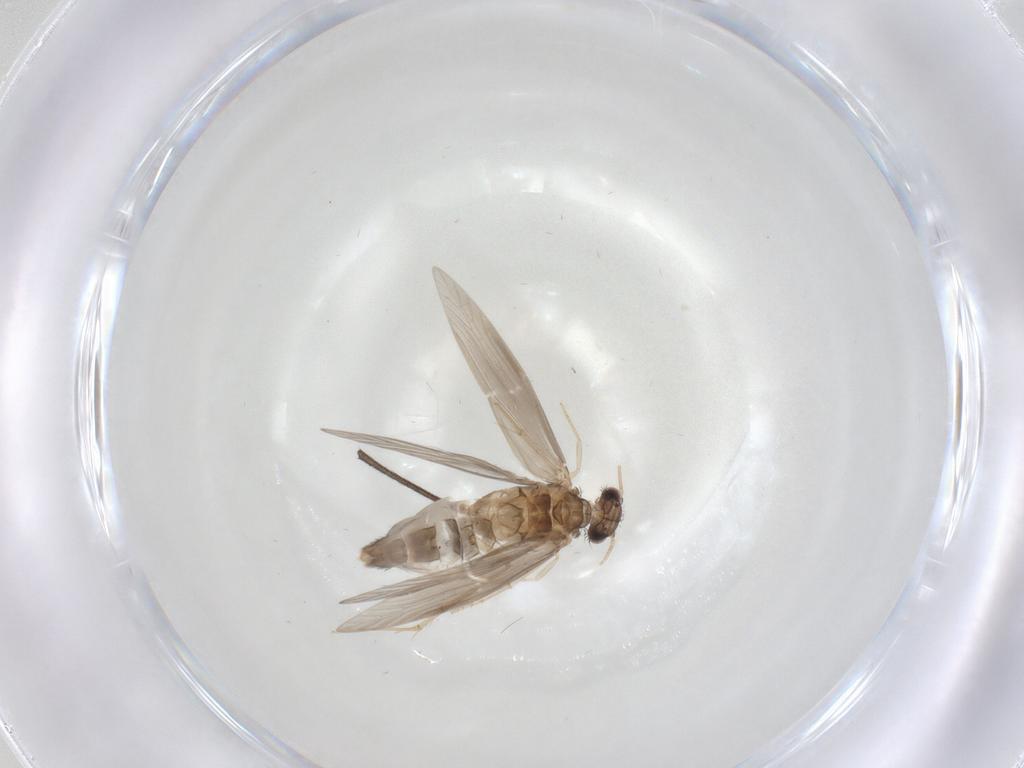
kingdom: Animalia
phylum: Arthropoda
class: Insecta
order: Trichoptera
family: Hydroptilidae
